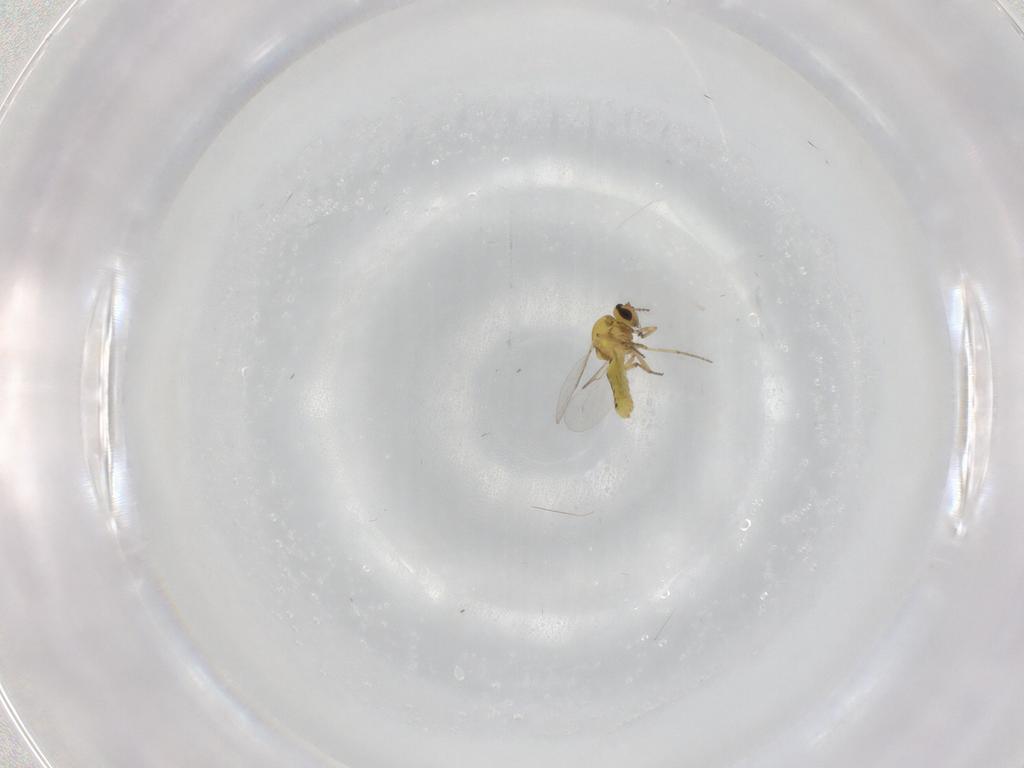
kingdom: Animalia
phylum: Arthropoda
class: Insecta
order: Diptera
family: Ceratopogonidae
